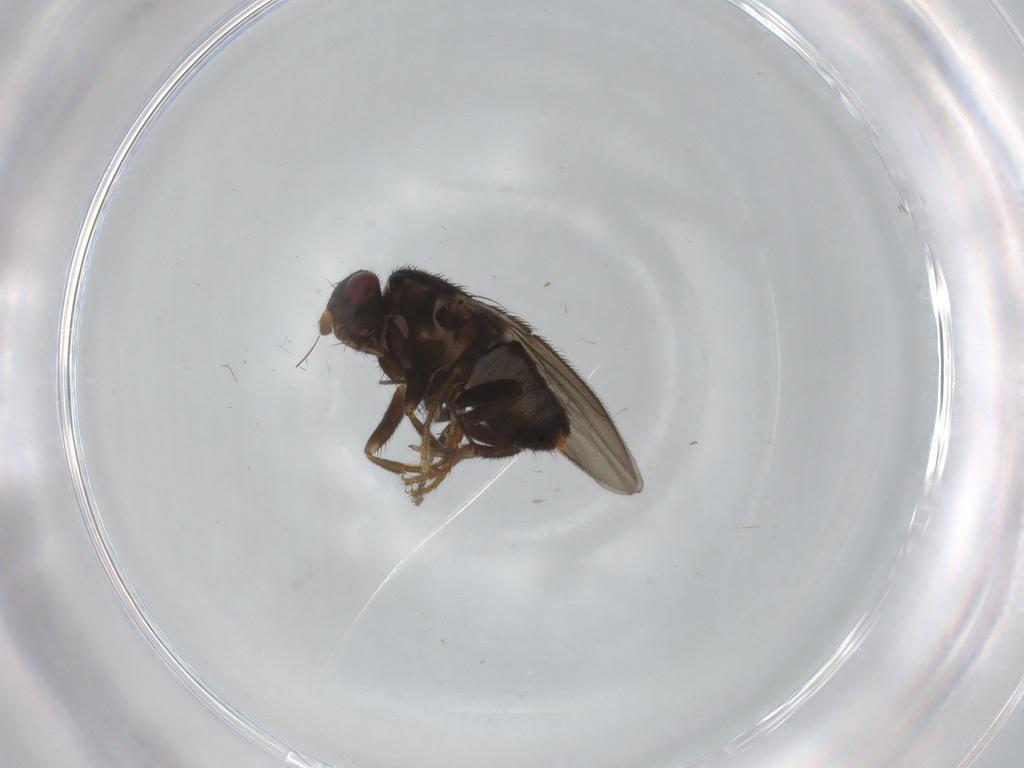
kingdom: Animalia
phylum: Arthropoda
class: Insecta
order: Diptera
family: Sphaeroceridae
